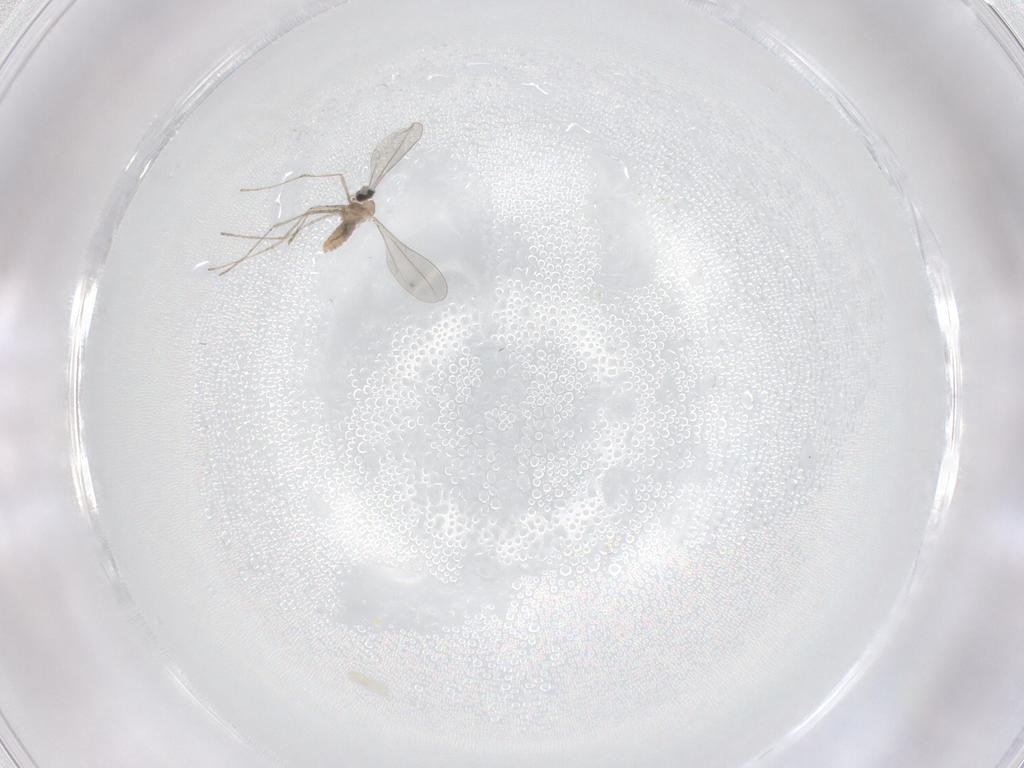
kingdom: Animalia
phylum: Arthropoda
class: Insecta
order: Diptera
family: Cecidomyiidae
